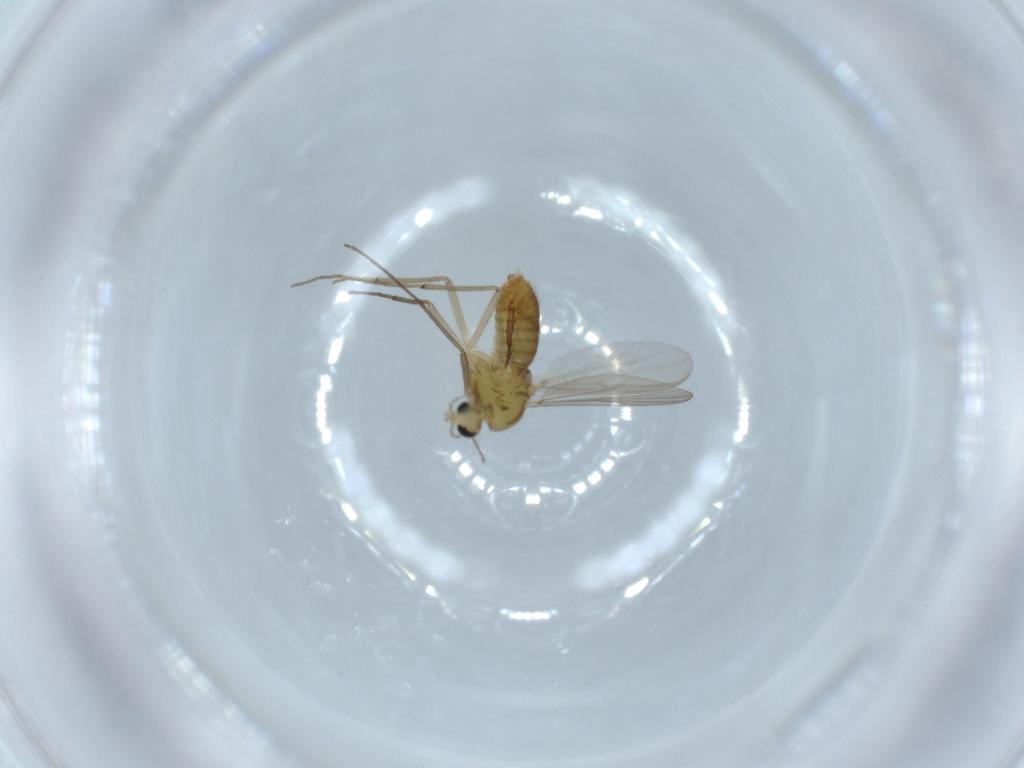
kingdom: Animalia
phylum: Arthropoda
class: Insecta
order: Diptera
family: Chironomidae
